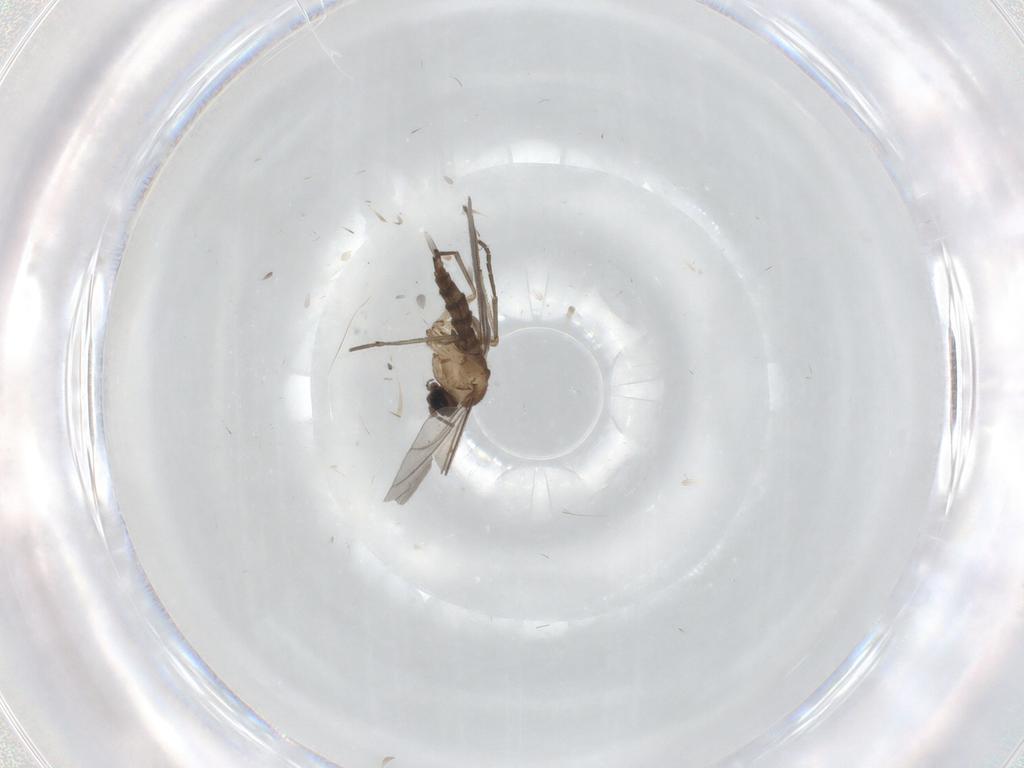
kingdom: Animalia
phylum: Arthropoda
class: Insecta
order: Diptera
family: Sciaridae
